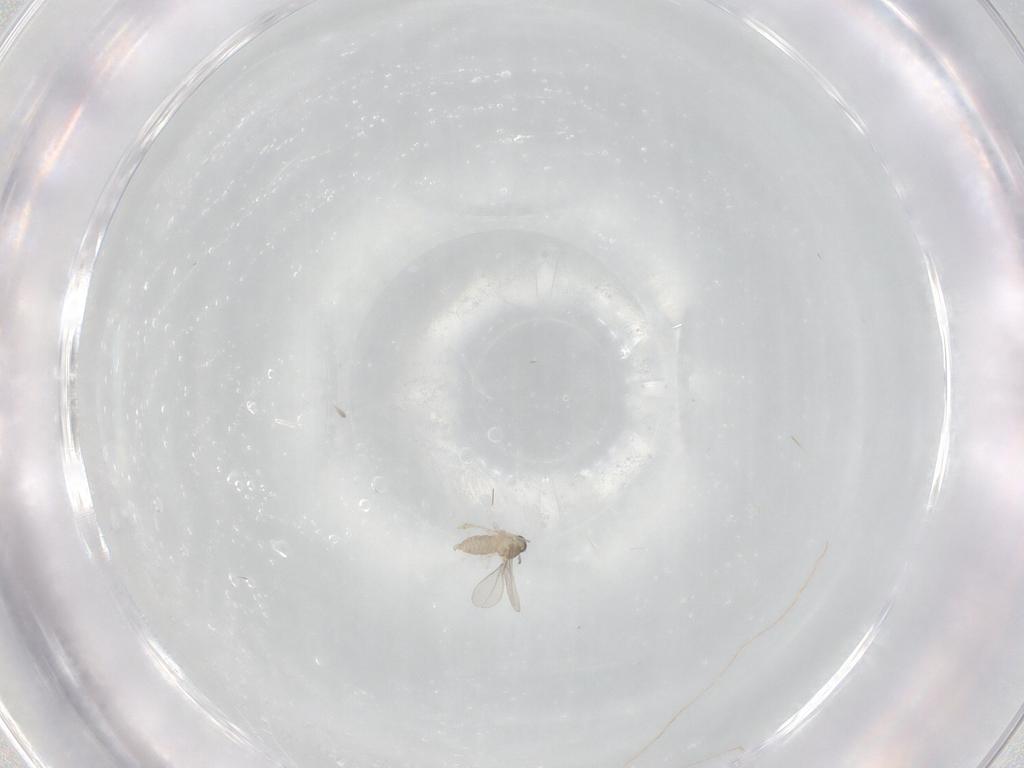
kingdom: Animalia
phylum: Arthropoda
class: Insecta
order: Diptera
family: Cecidomyiidae
